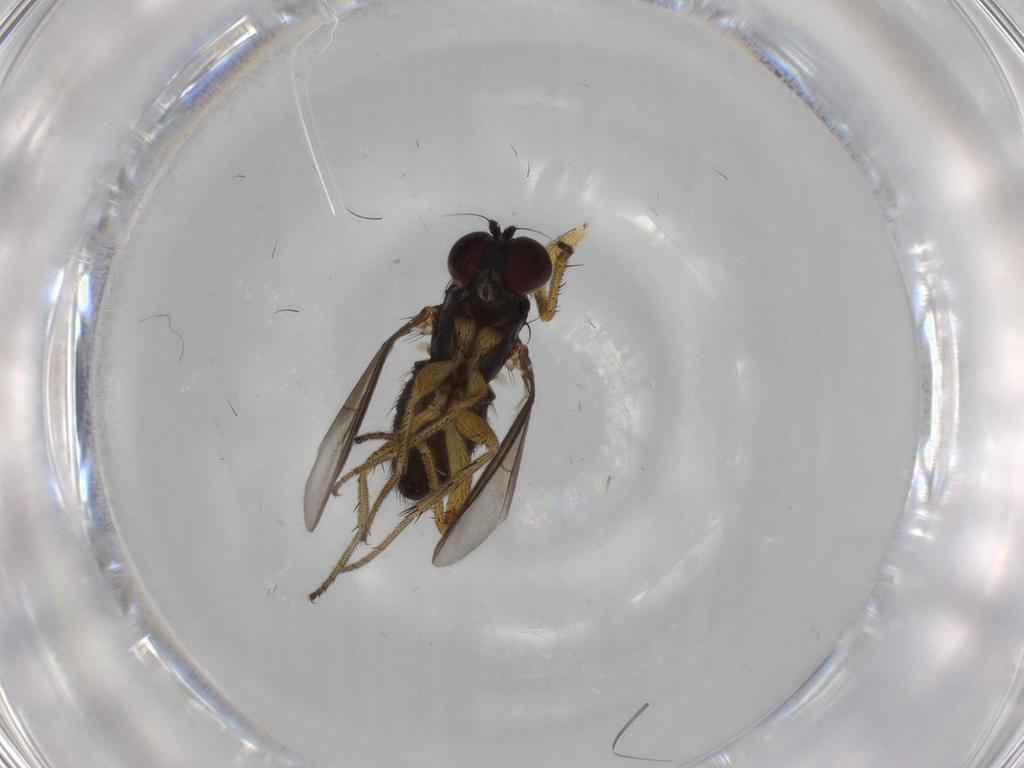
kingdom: Animalia
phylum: Arthropoda
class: Insecta
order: Diptera
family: Dolichopodidae
